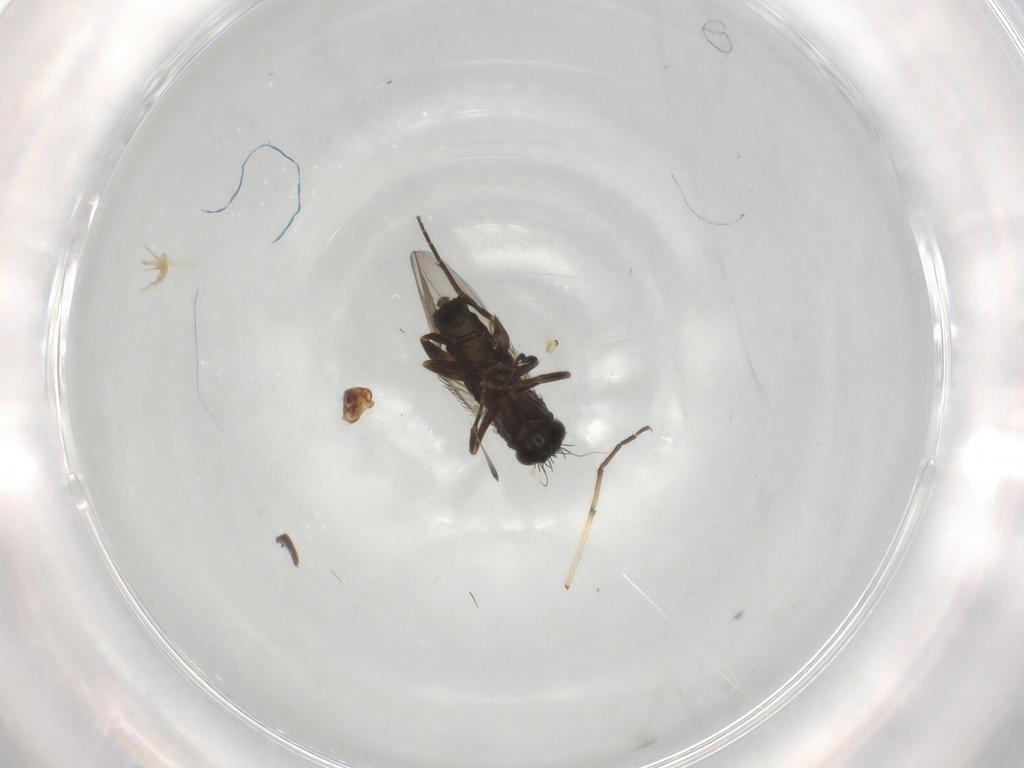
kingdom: Animalia
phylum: Arthropoda
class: Insecta
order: Diptera
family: Phoridae
